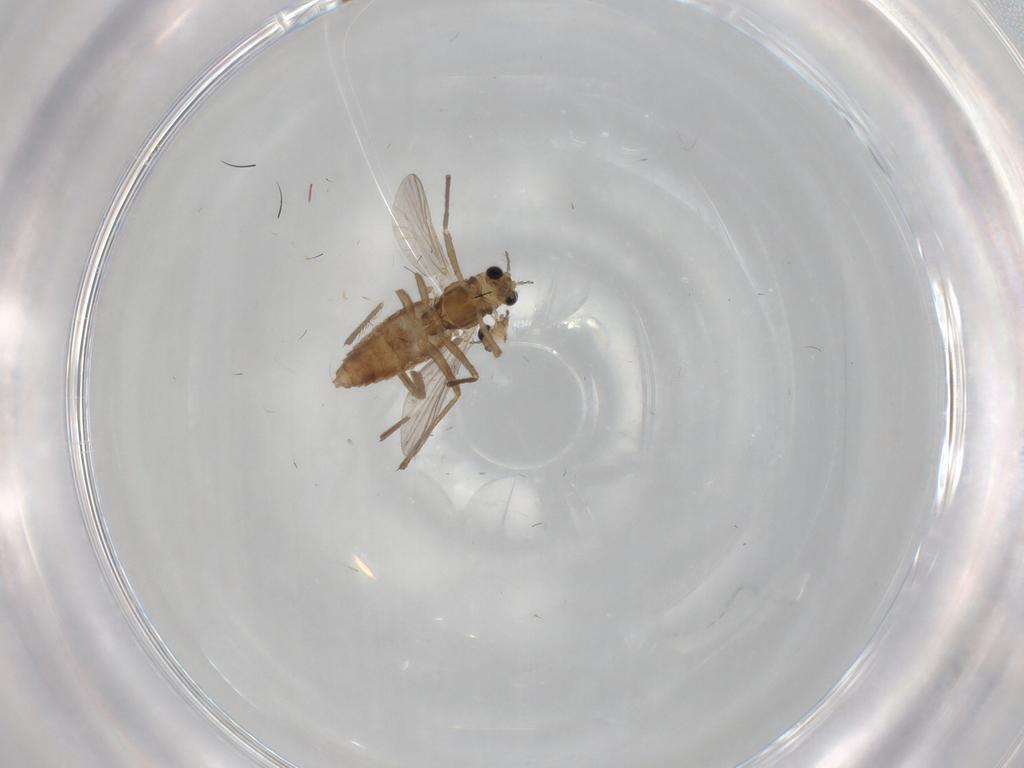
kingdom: Animalia
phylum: Arthropoda
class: Insecta
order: Diptera
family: Chironomidae
